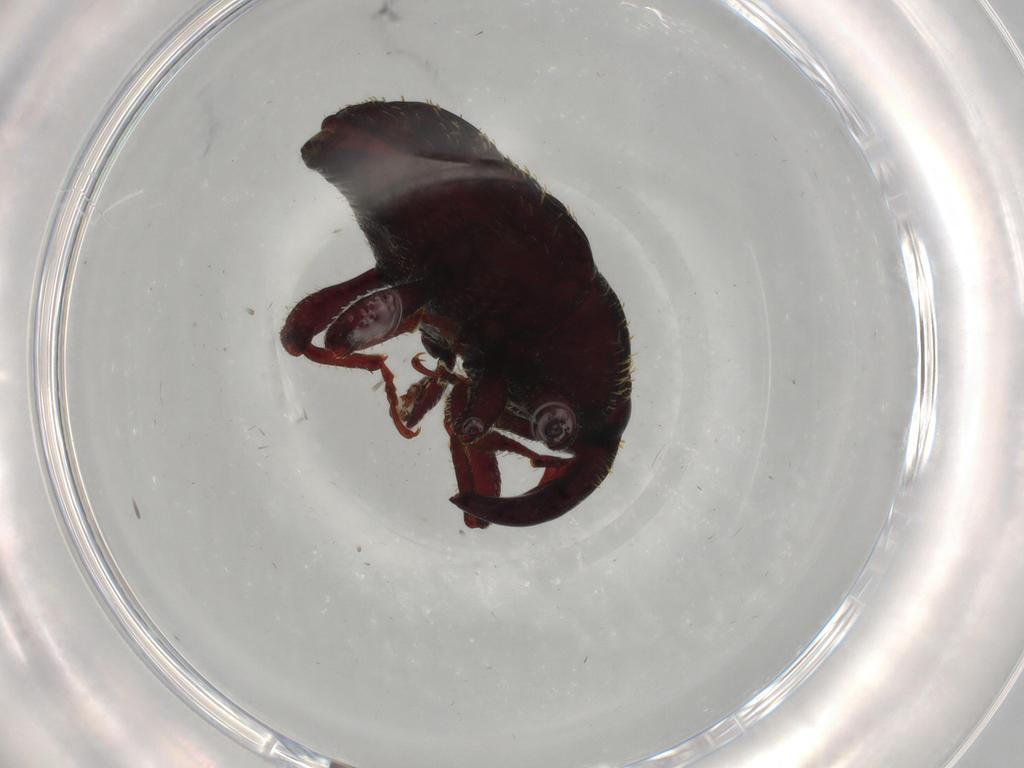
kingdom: Animalia
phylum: Arthropoda
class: Insecta
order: Coleoptera
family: Curculionidae
